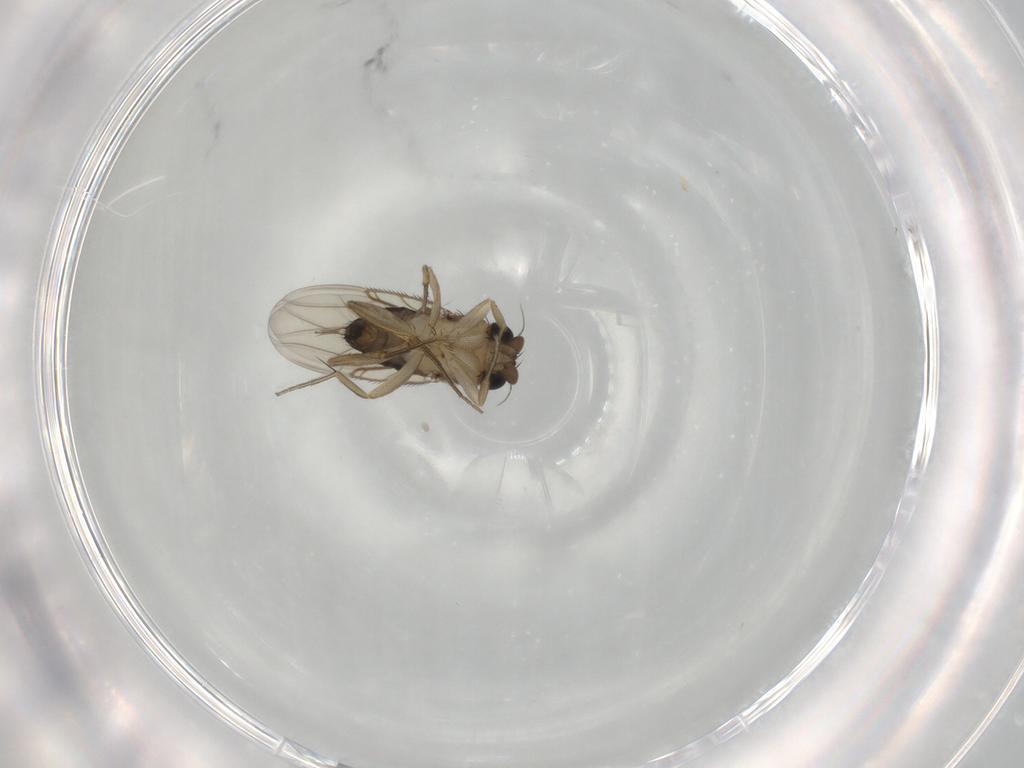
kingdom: Animalia
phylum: Arthropoda
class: Insecta
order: Diptera
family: Phoridae
